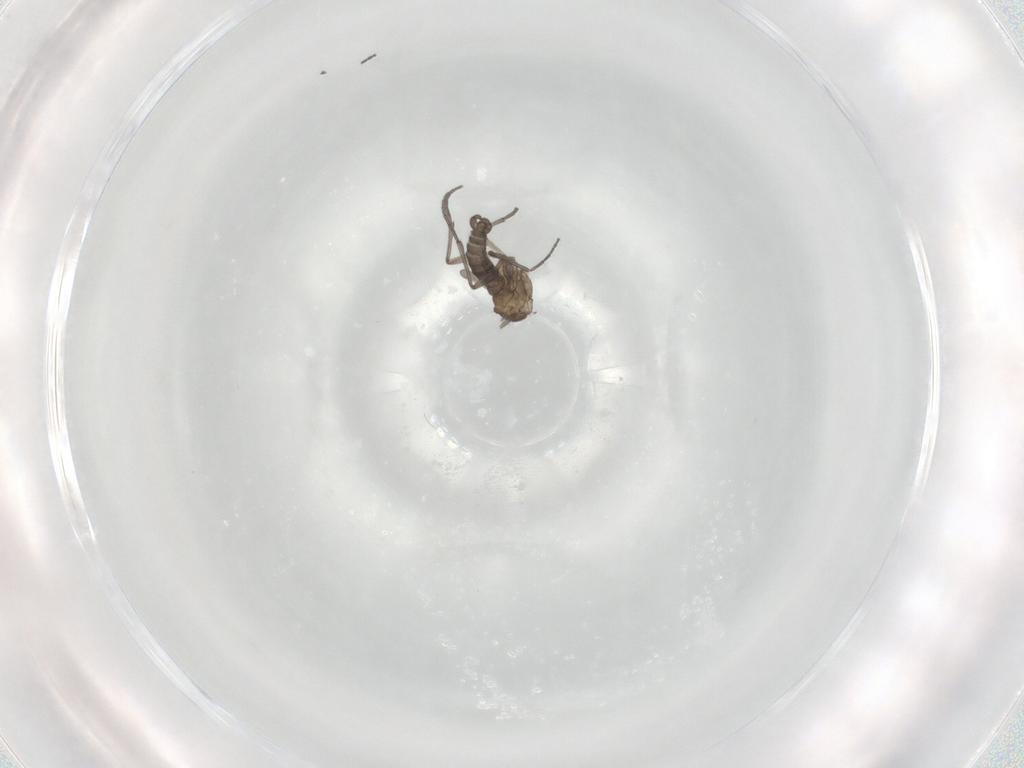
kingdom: Animalia
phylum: Arthropoda
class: Insecta
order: Diptera
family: Sciaridae
